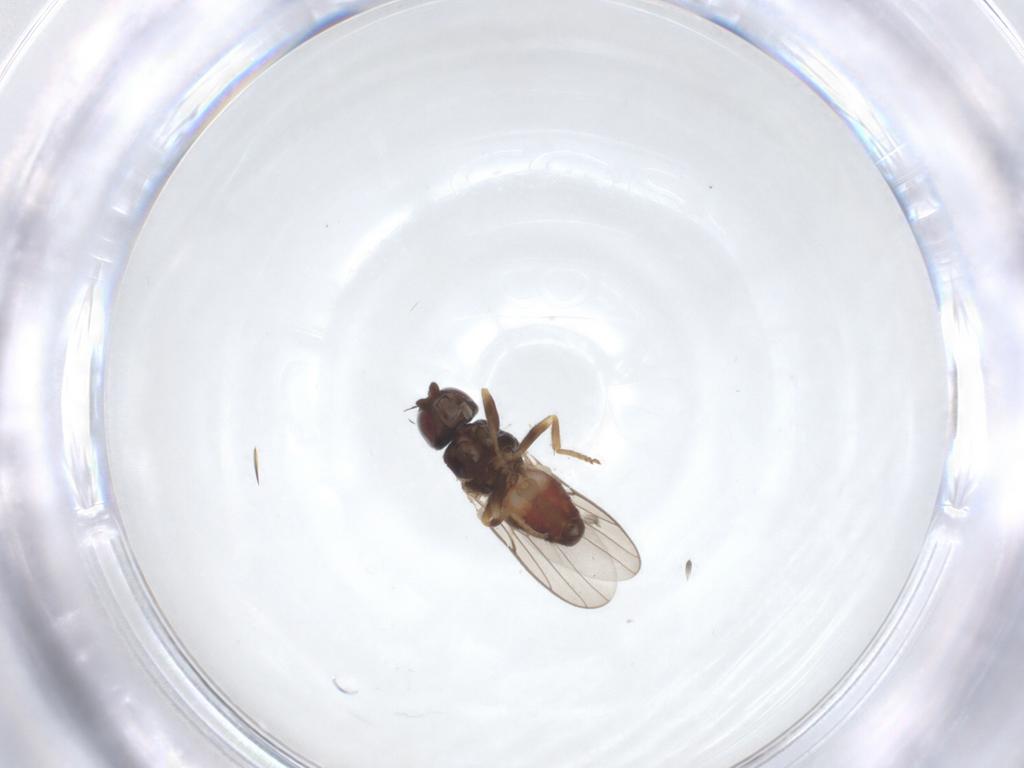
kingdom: Animalia
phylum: Arthropoda
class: Insecta
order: Diptera
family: Chloropidae
